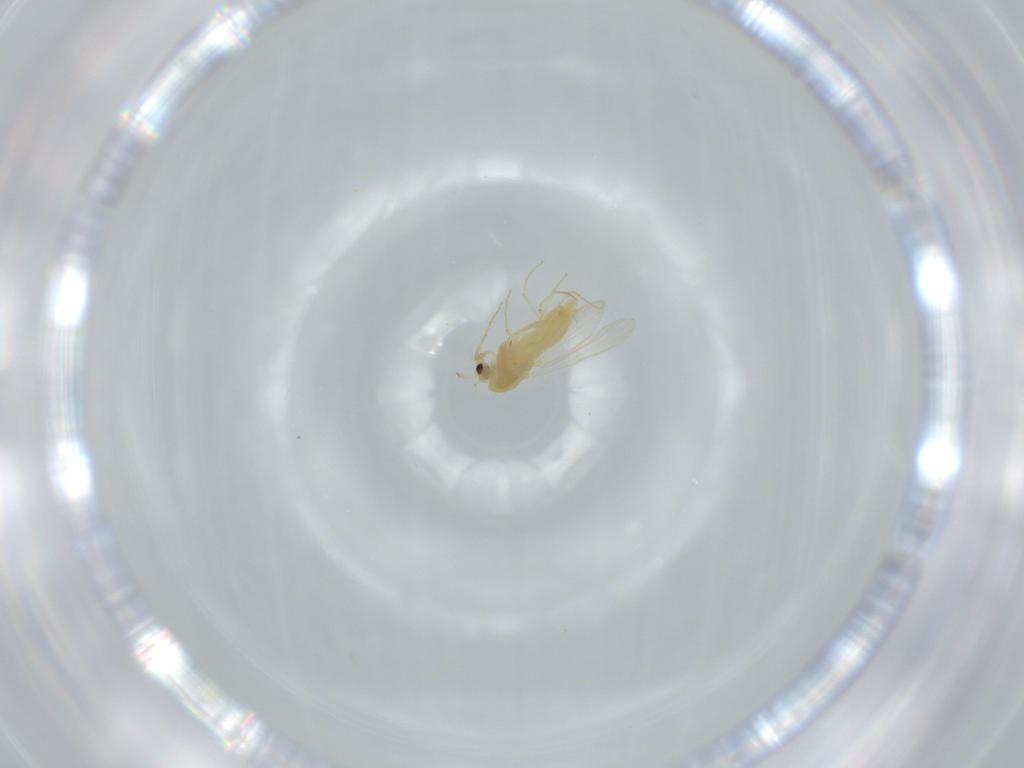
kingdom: Animalia
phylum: Arthropoda
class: Insecta
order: Diptera
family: Chironomidae
